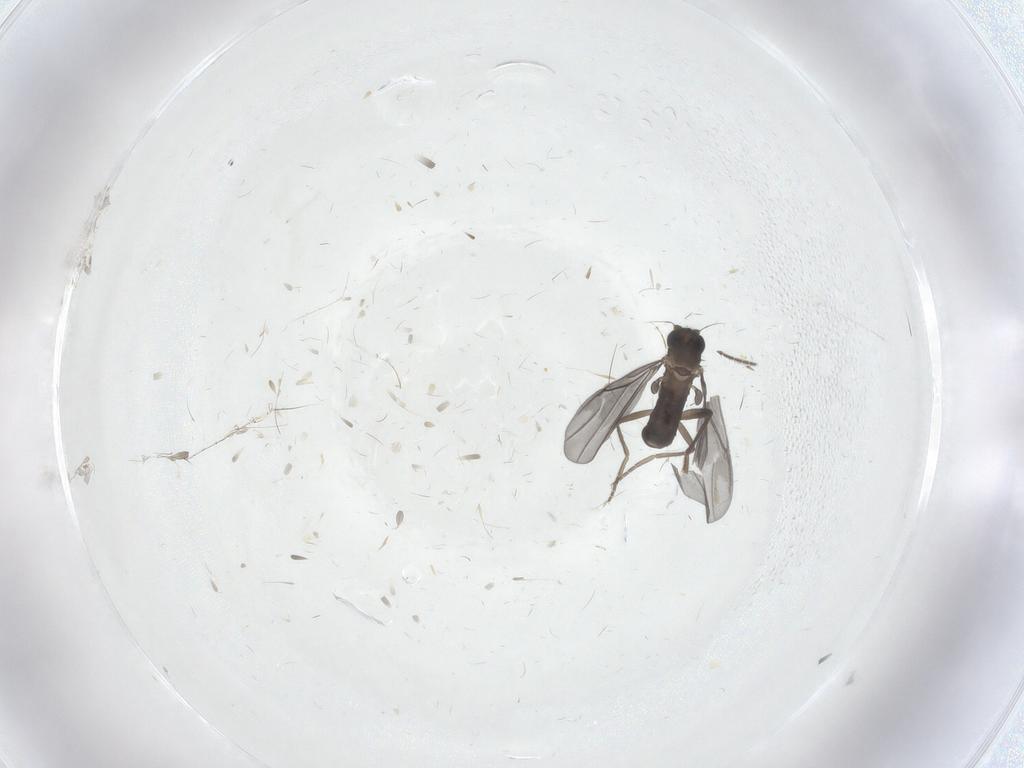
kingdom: Animalia
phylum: Arthropoda
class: Insecta
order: Diptera
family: Phoridae
